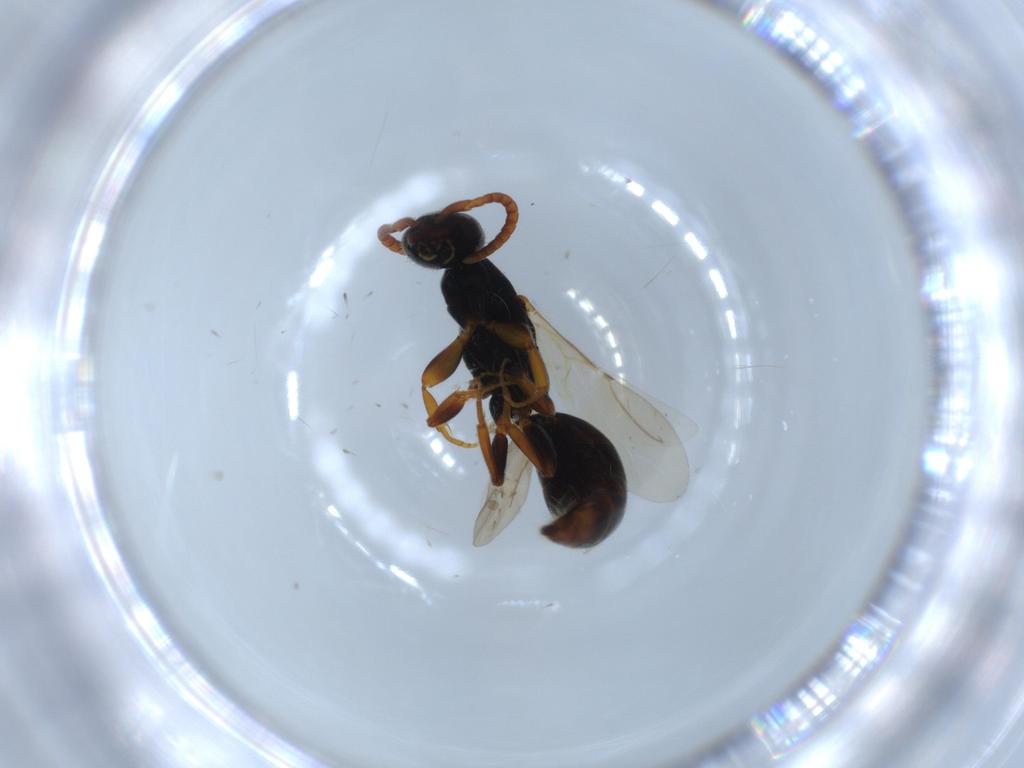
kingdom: Animalia
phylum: Arthropoda
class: Insecta
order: Hymenoptera
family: Bethylidae
